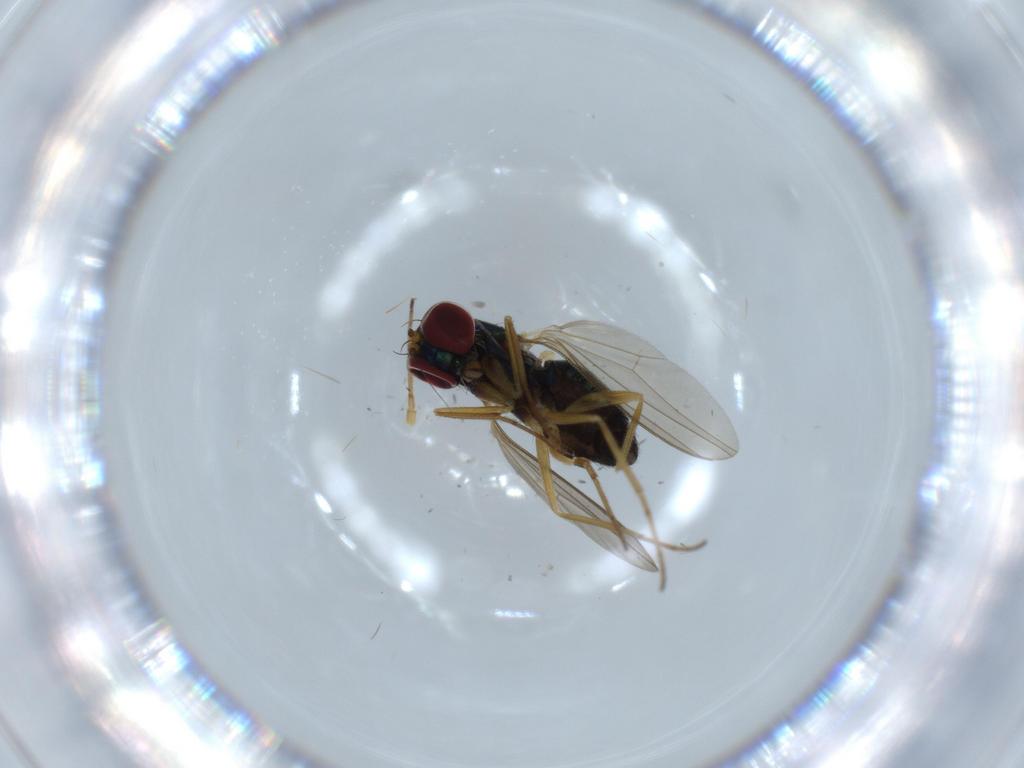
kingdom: Animalia
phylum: Arthropoda
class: Insecta
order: Diptera
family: Dolichopodidae
